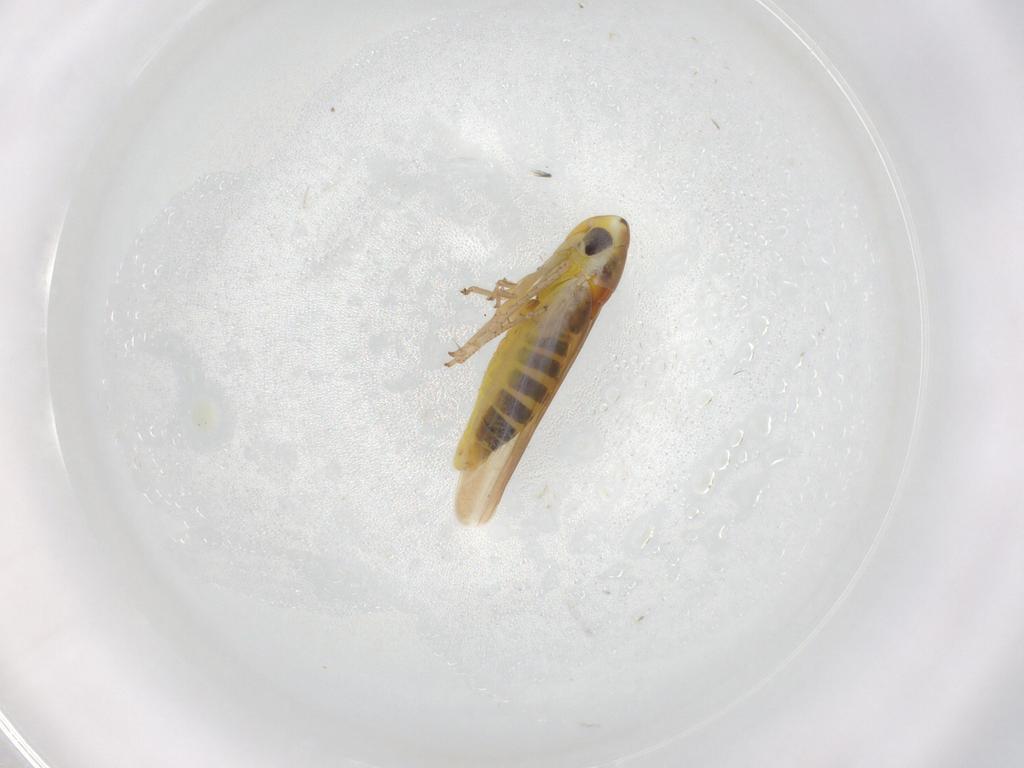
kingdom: Animalia
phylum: Arthropoda
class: Insecta
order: Hemiptera
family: Cicadellidae
